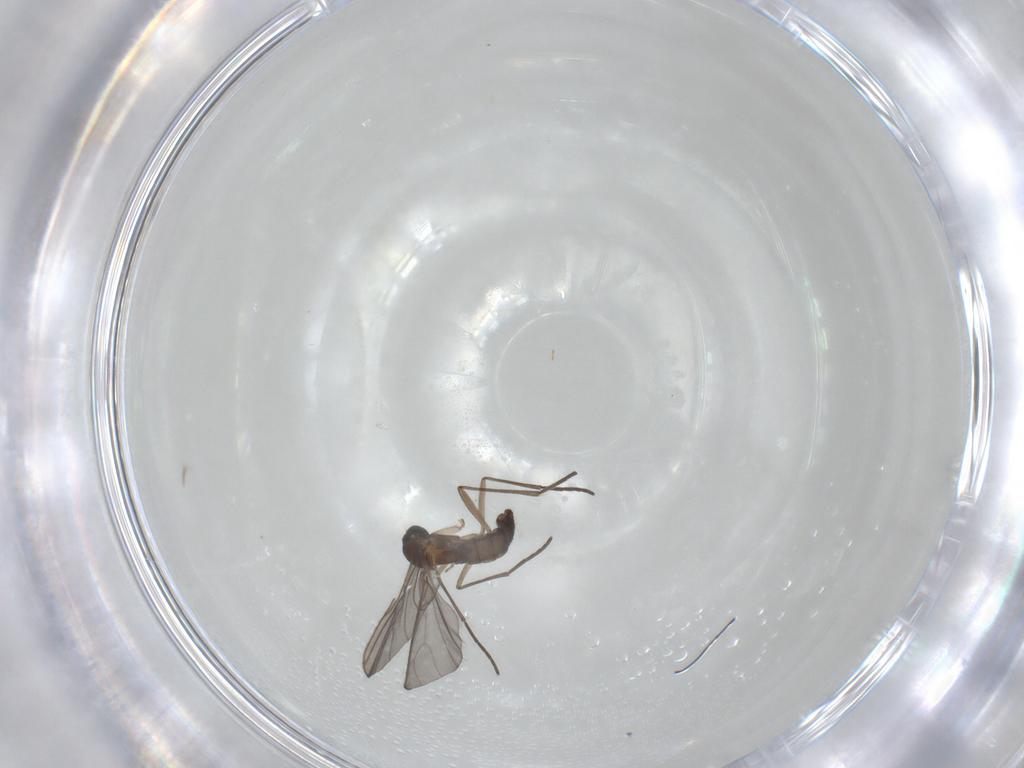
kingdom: Animalia
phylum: Arthropoda
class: Insecta
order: Diptera
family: Sciaridae
